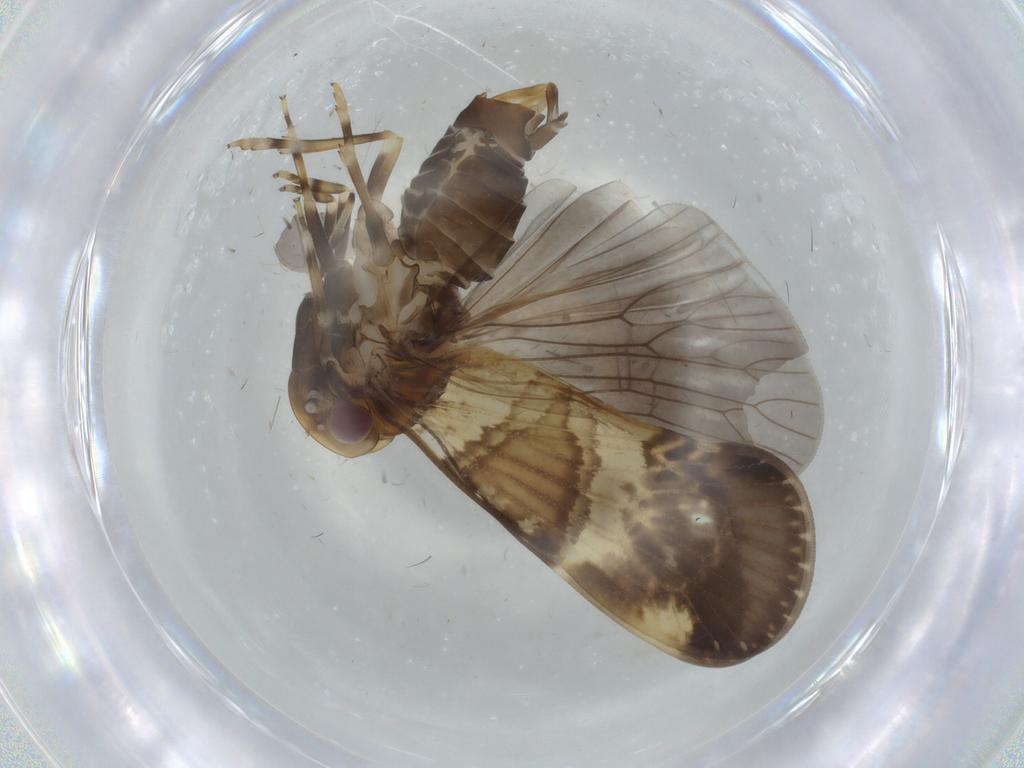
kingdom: Animalia
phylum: Arthropoda
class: Insecta
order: Hemiptera
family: Cixiidae
